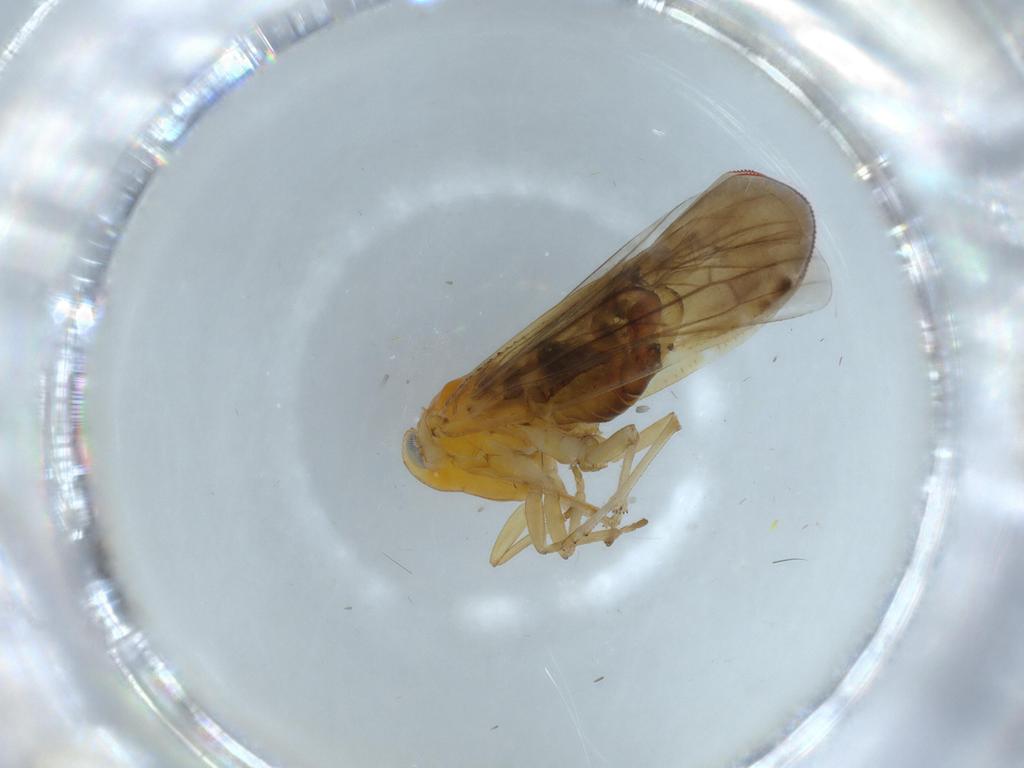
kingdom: Animalia
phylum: Arthropoda
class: Insecta
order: Hemiptera
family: Derbidae
